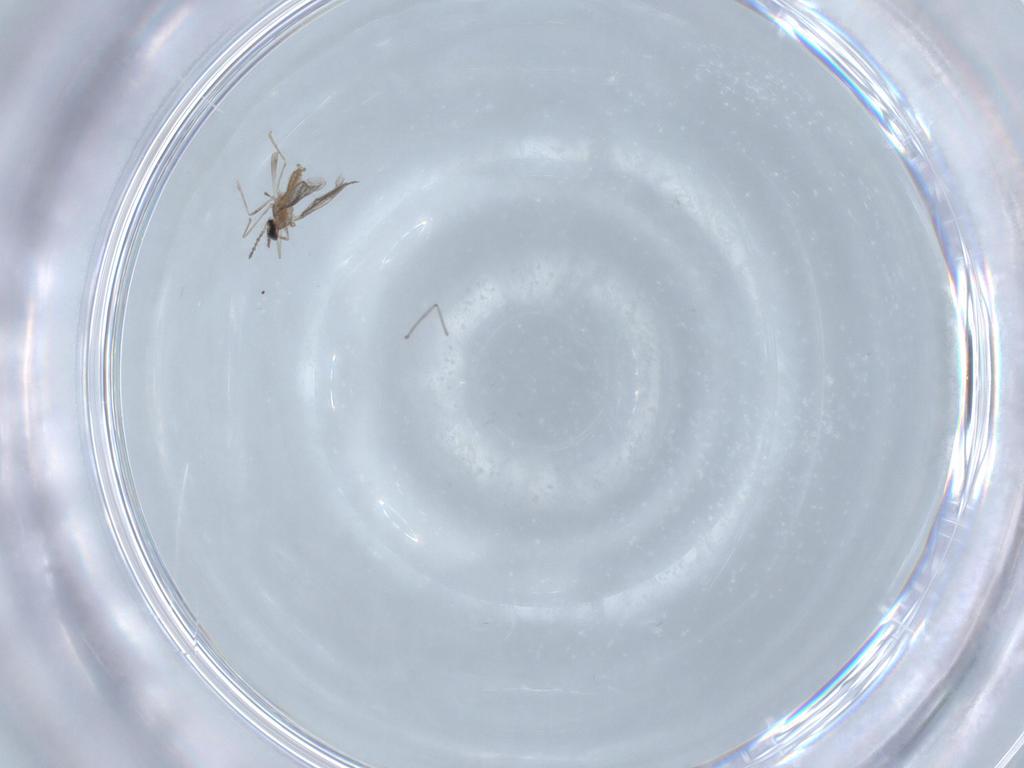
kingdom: Animalia
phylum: Arthropoda
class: Insecta
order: Diptera
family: Cecidomyiidae
